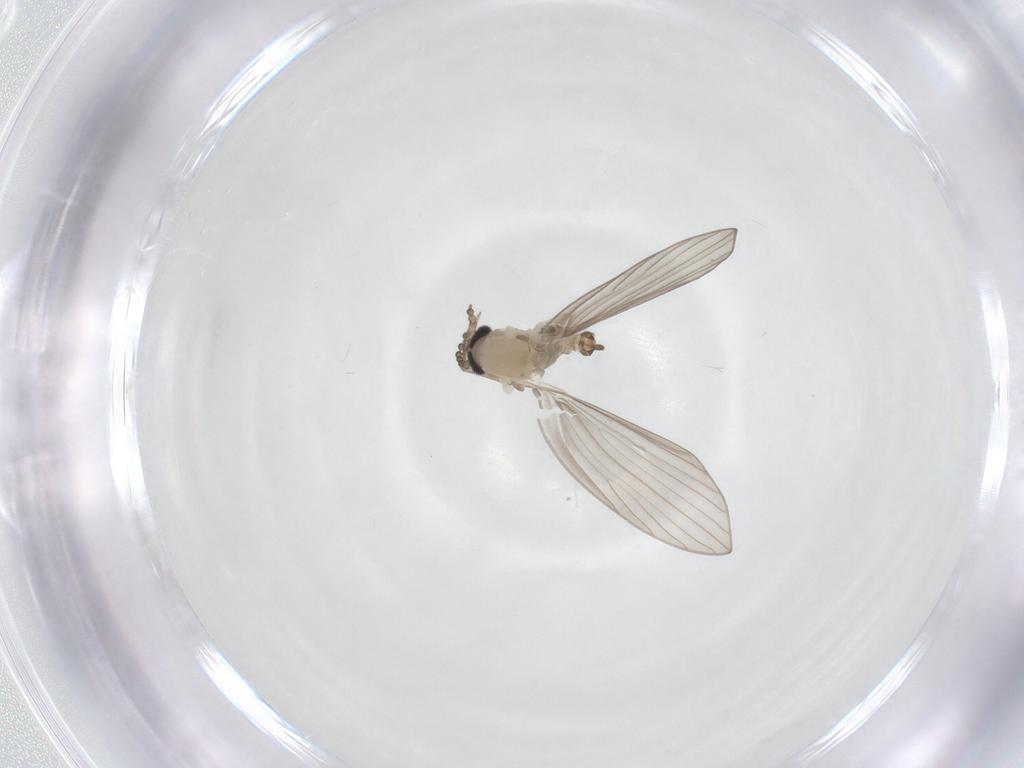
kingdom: Animalia
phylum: Arthropoda
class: Insecta
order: Diptera
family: Psychodidae
